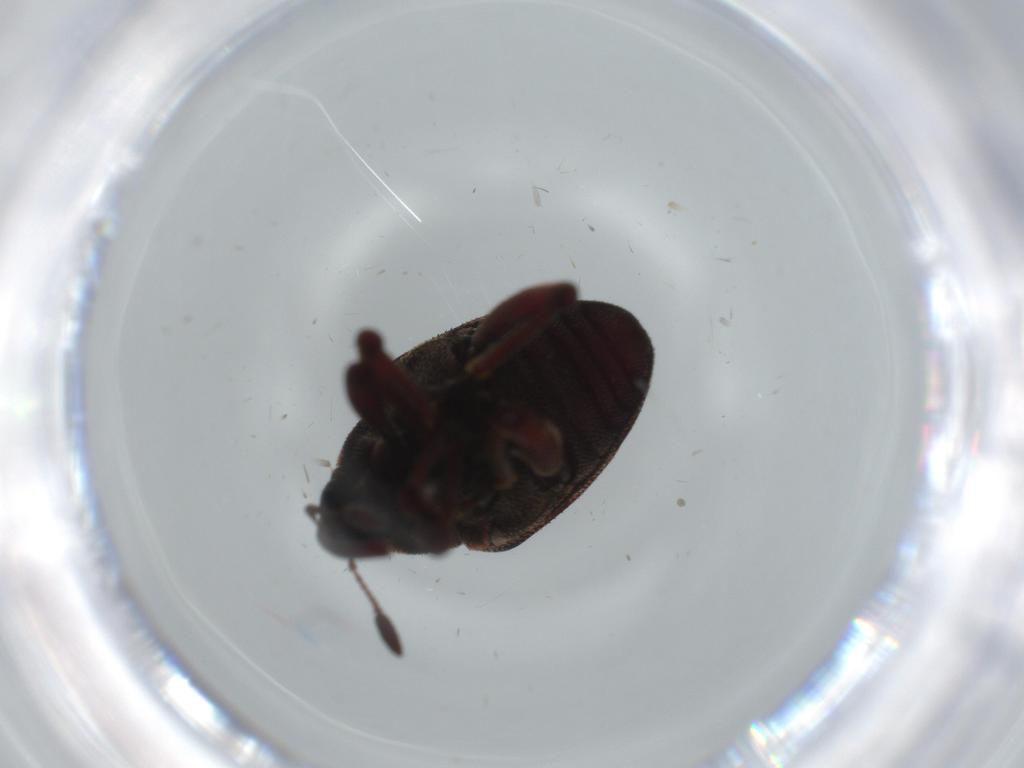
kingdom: Animalia
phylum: Arthropoda
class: Insecta
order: Coleoptera
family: Curculionidae
